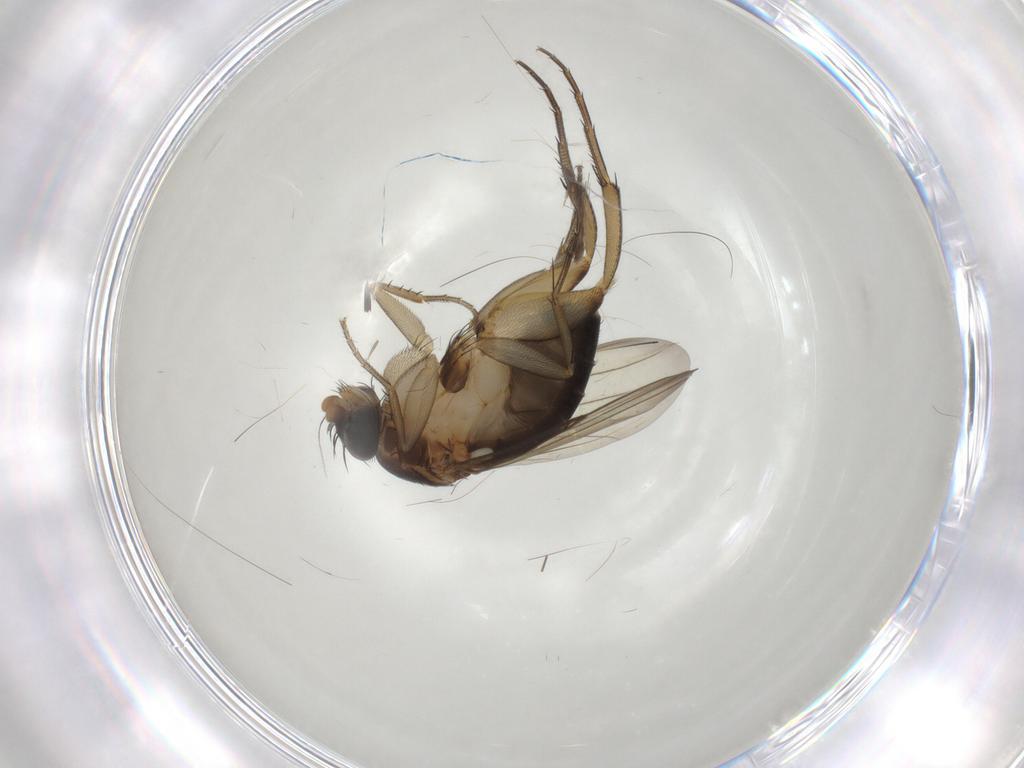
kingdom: Animalia
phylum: Arthropoda
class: Insecta
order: Diptera
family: Phoridae
